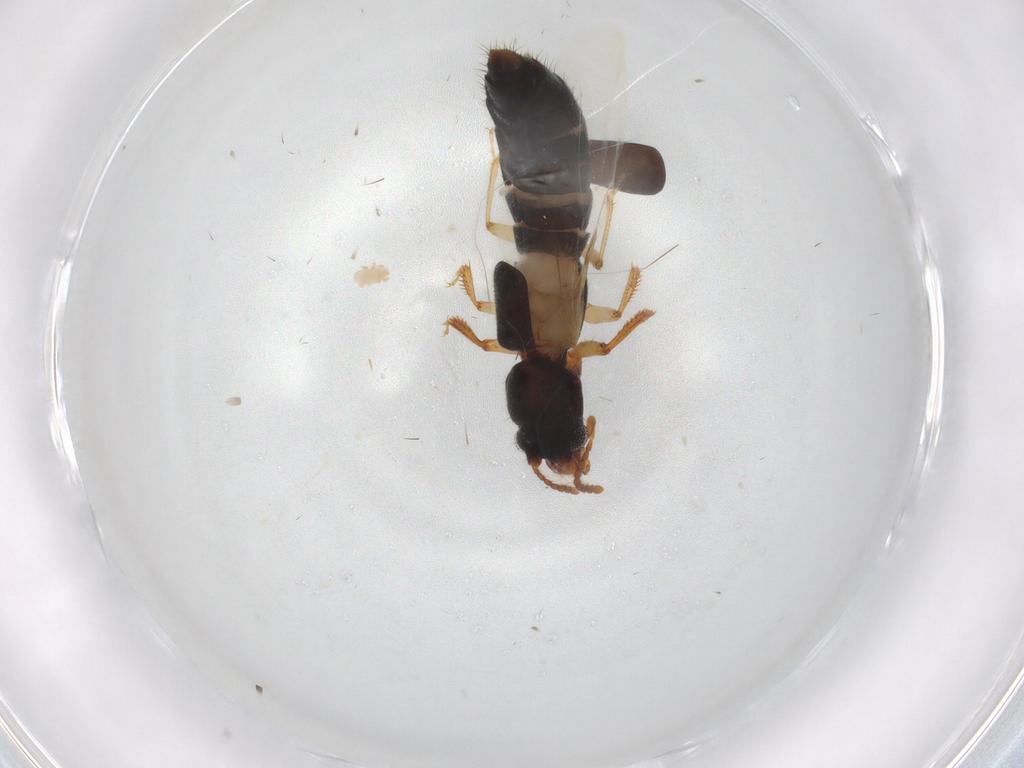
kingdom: Animalia
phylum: Arthropoda
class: Insecta
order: Coleoptera
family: Staphylinidae
